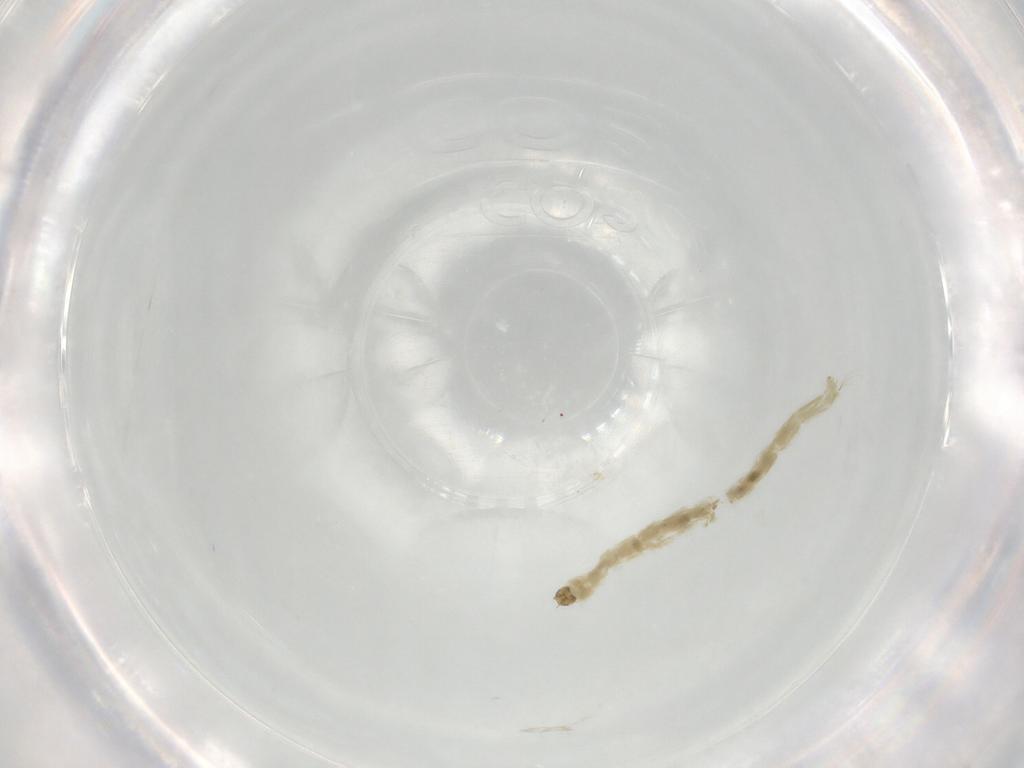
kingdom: Animalia
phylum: Arthropoda
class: Insecta
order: Diptera
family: Chironomidae
